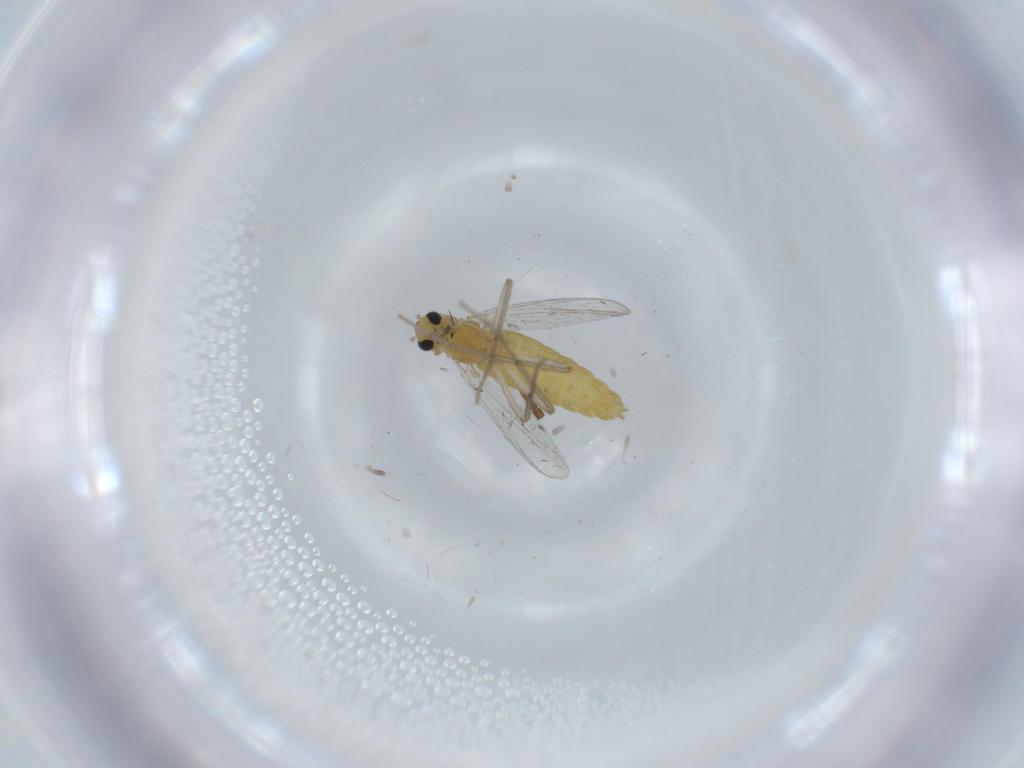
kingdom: Animalia
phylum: Arthropoda
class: Insecta
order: Diptera
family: Chironomidae
